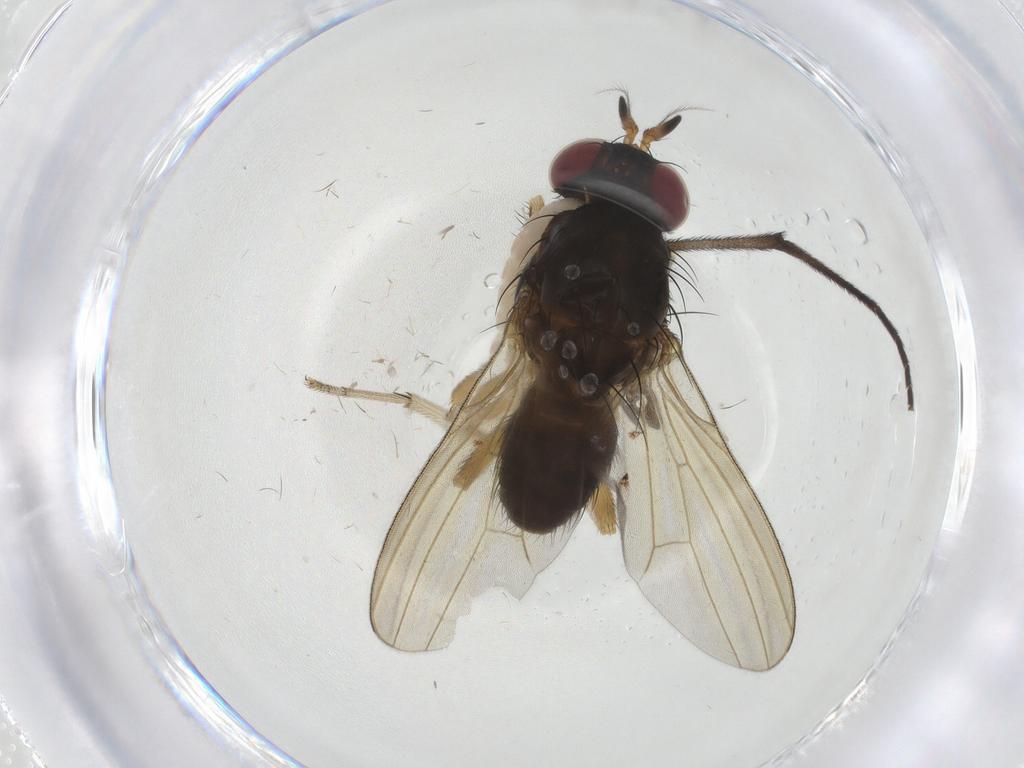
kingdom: Animalia
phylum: Arthropoda
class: Insecta
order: Diptera
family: Chironomidae
